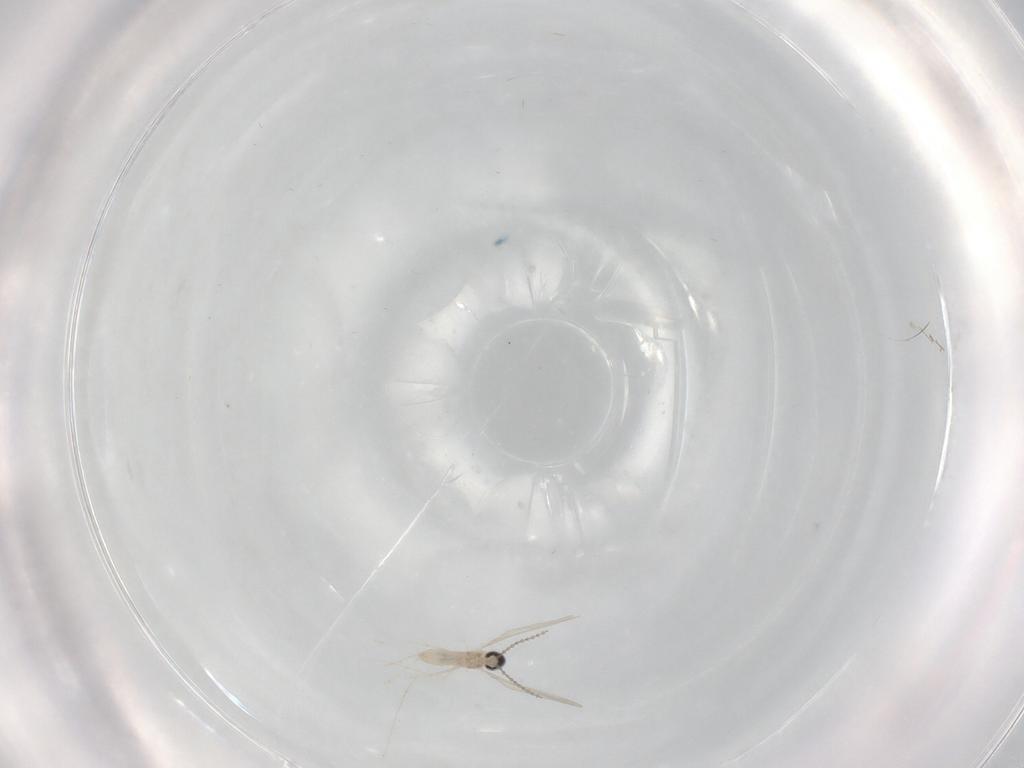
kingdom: Animalia
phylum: Arthropoda
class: Insecta
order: Diptera
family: Cecidomyiidae
